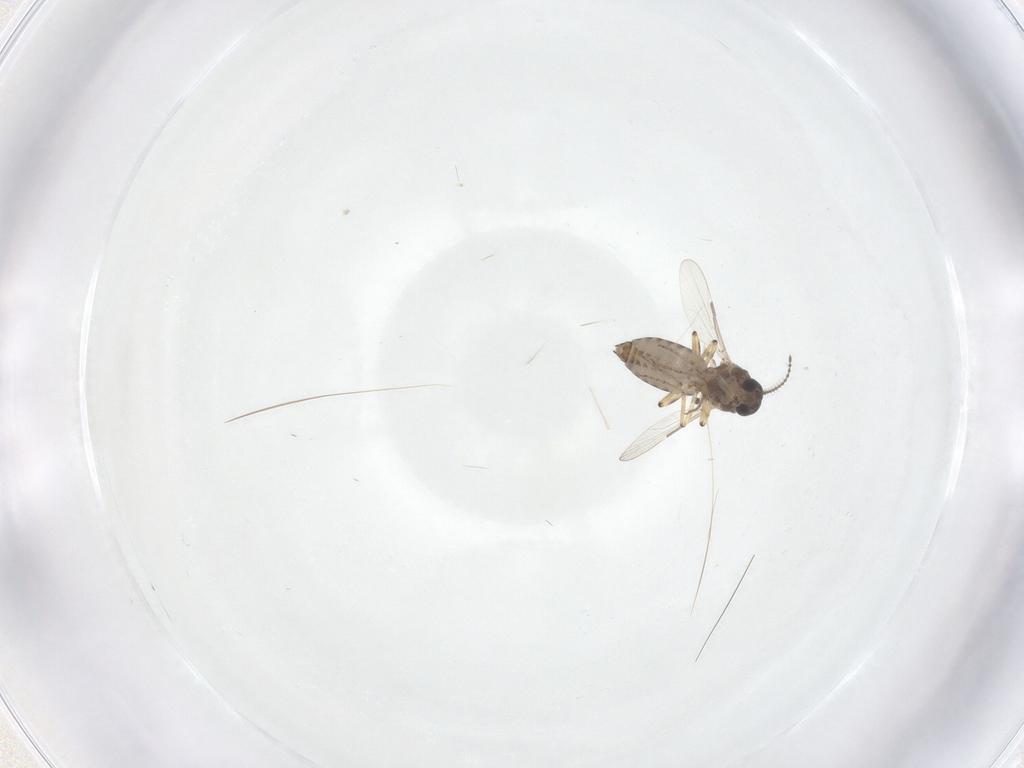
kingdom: Animalia
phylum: Arthropoda
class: Insecta
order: Diptera
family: Ceratopogonidae
